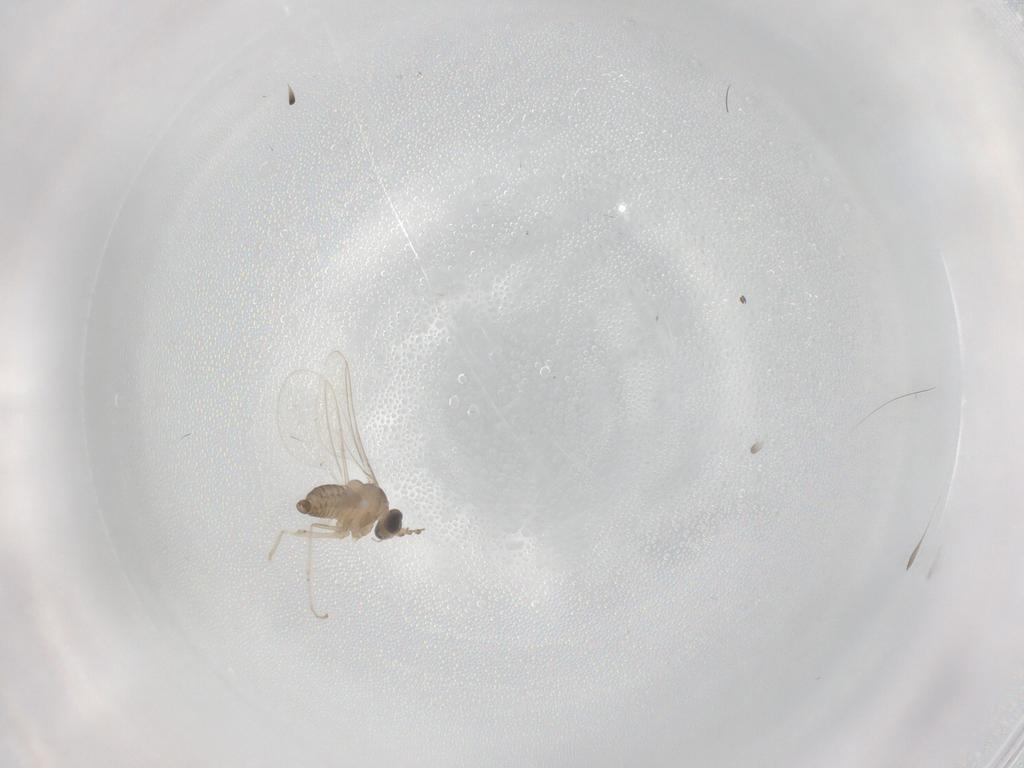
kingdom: Animalia
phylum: Arthropoda
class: Insecta
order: Diptera
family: Cecidomyiidae
